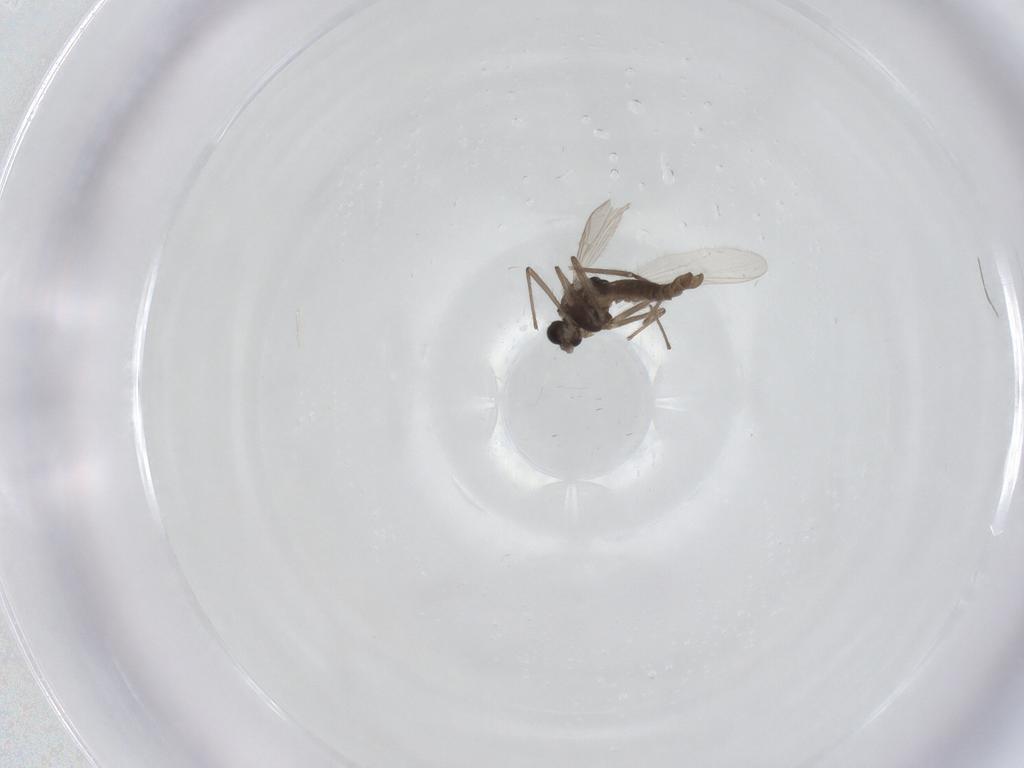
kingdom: Animalia
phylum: Arthropoda
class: Insecta
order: Diptera
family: Chironomidae
